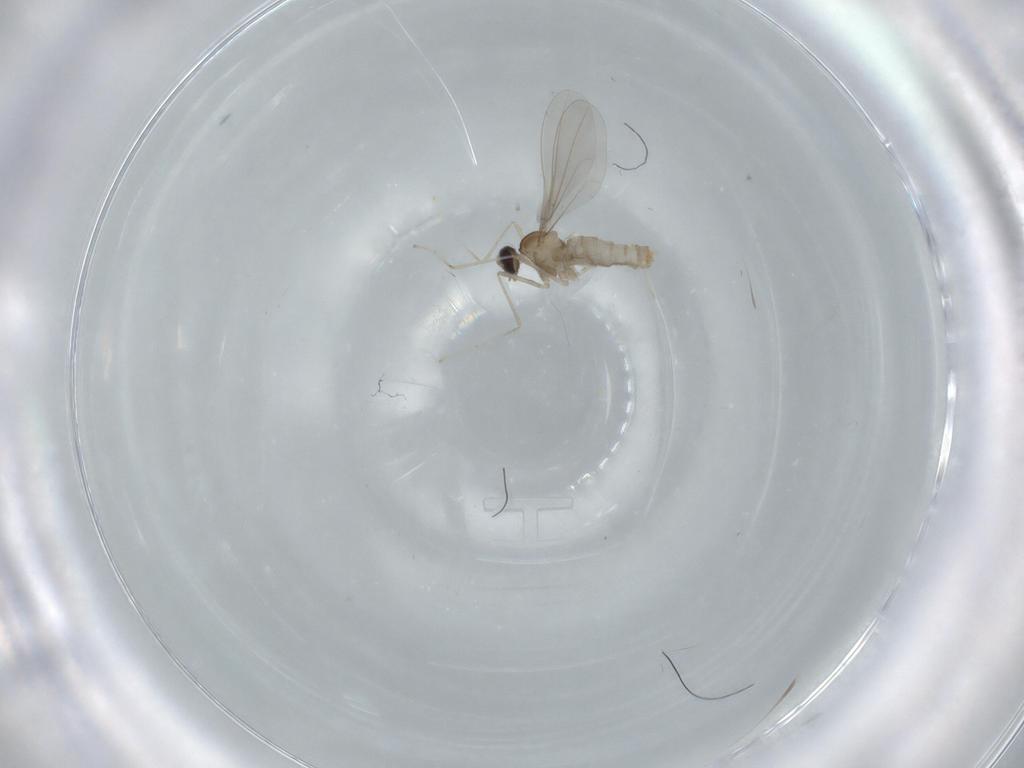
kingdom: Animalia
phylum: Arthropoda
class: Insecta
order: Diptera
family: Cecidomyiidae
